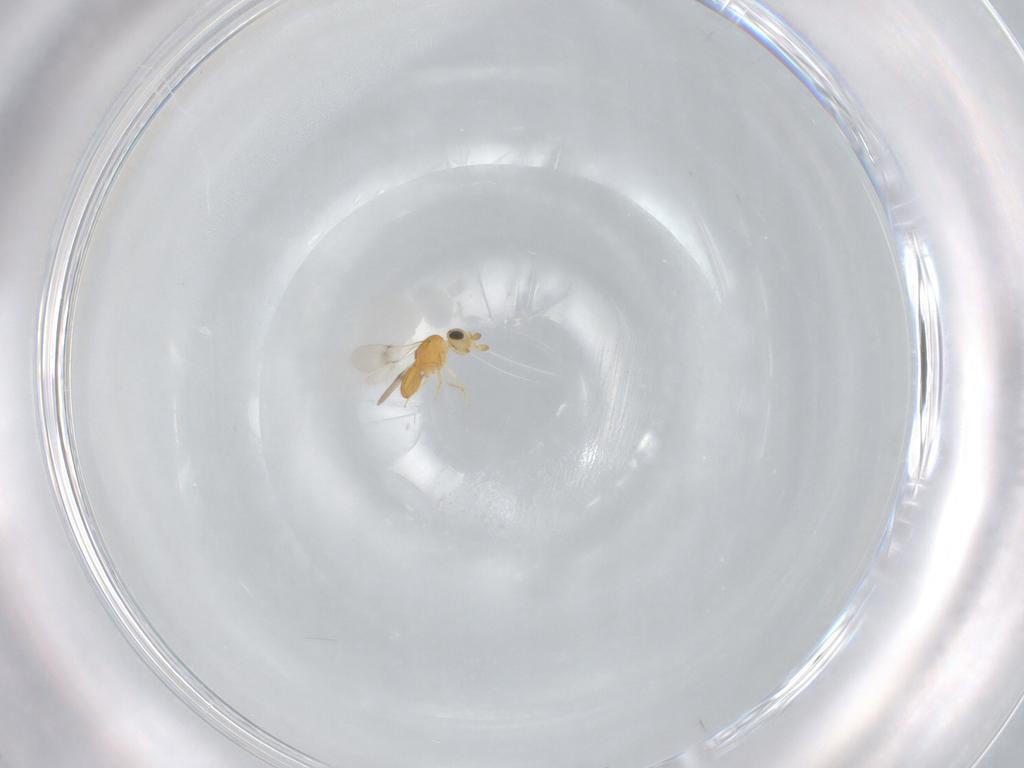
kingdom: Animalia
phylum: Arthropoda
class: Insecta
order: Hymenoptera
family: Scelionidae
